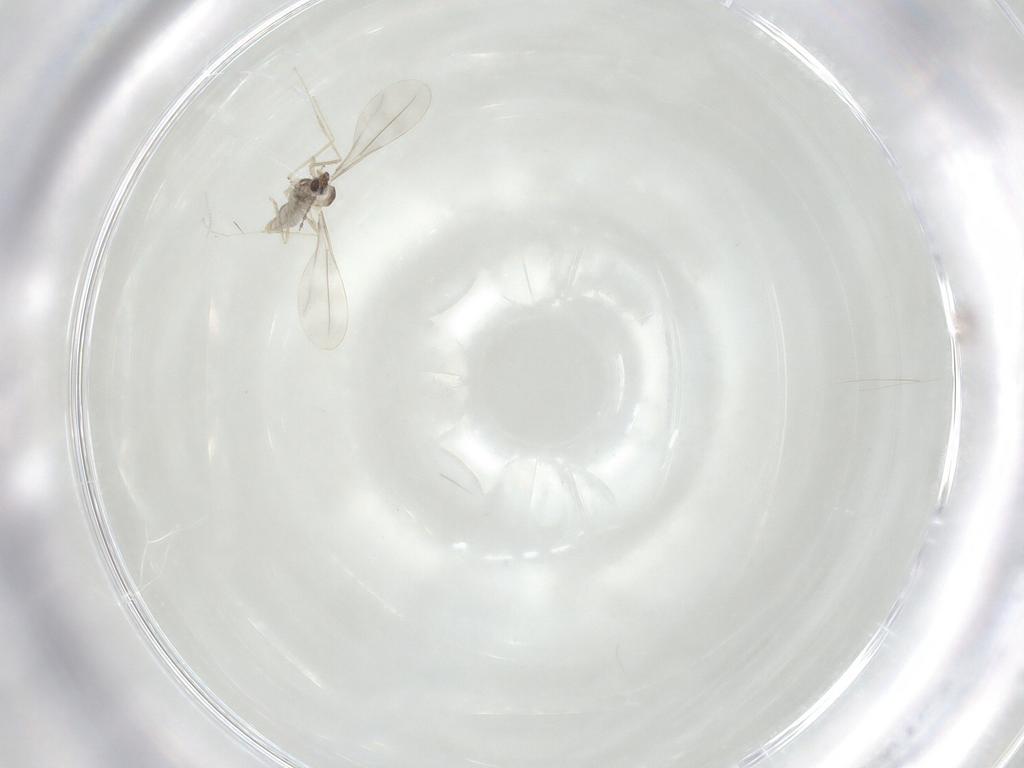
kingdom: Animalia
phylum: Arthropoda
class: Insecta
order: Diptera
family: Cecidomyiidae
